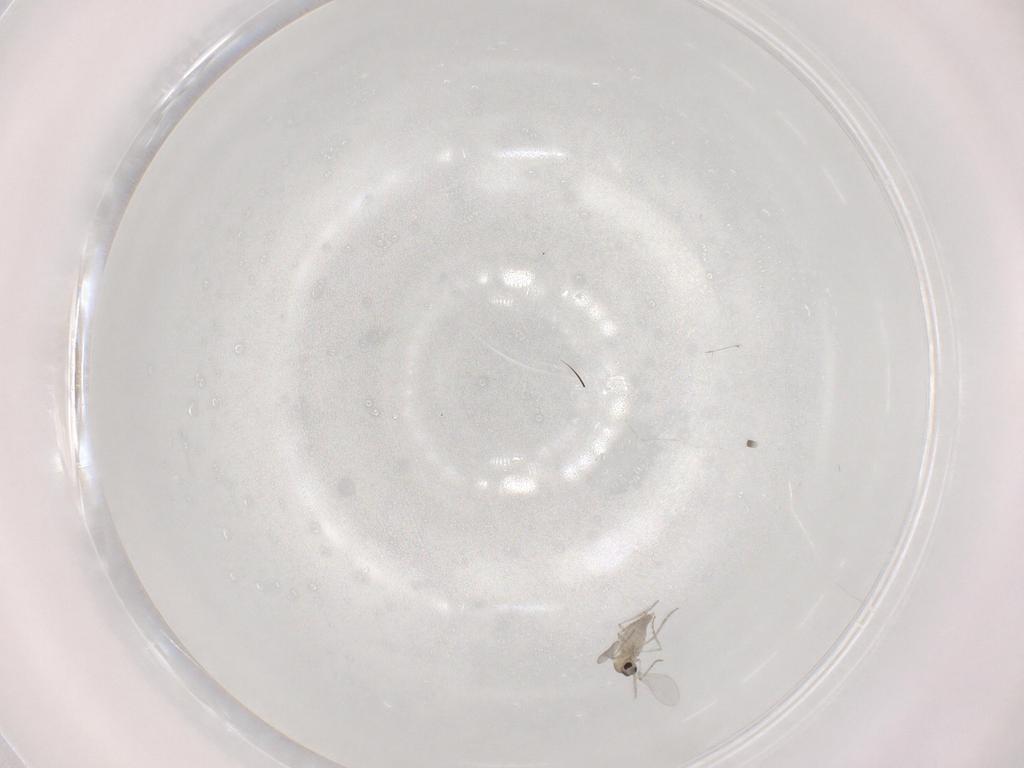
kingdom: Animalia
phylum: Arthropoda
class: Insecta
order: Diptera
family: Cecidomyiidae
